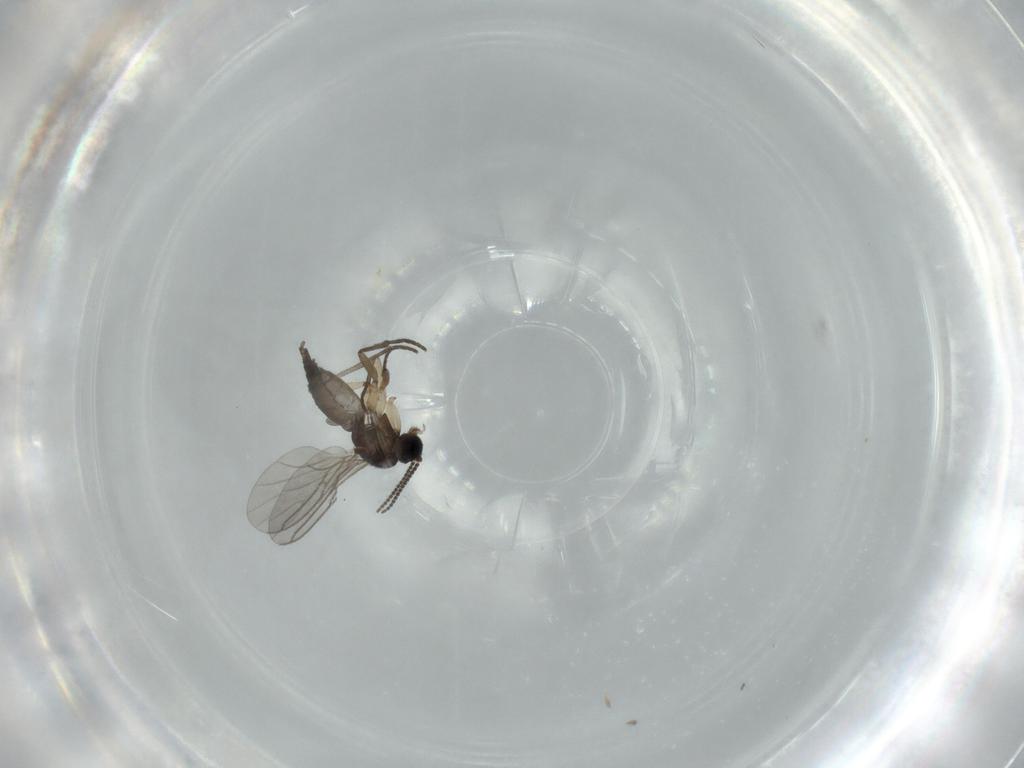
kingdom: Animalia
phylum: Arthropoda
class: Insecta
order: Diptera
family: Sciaridae
